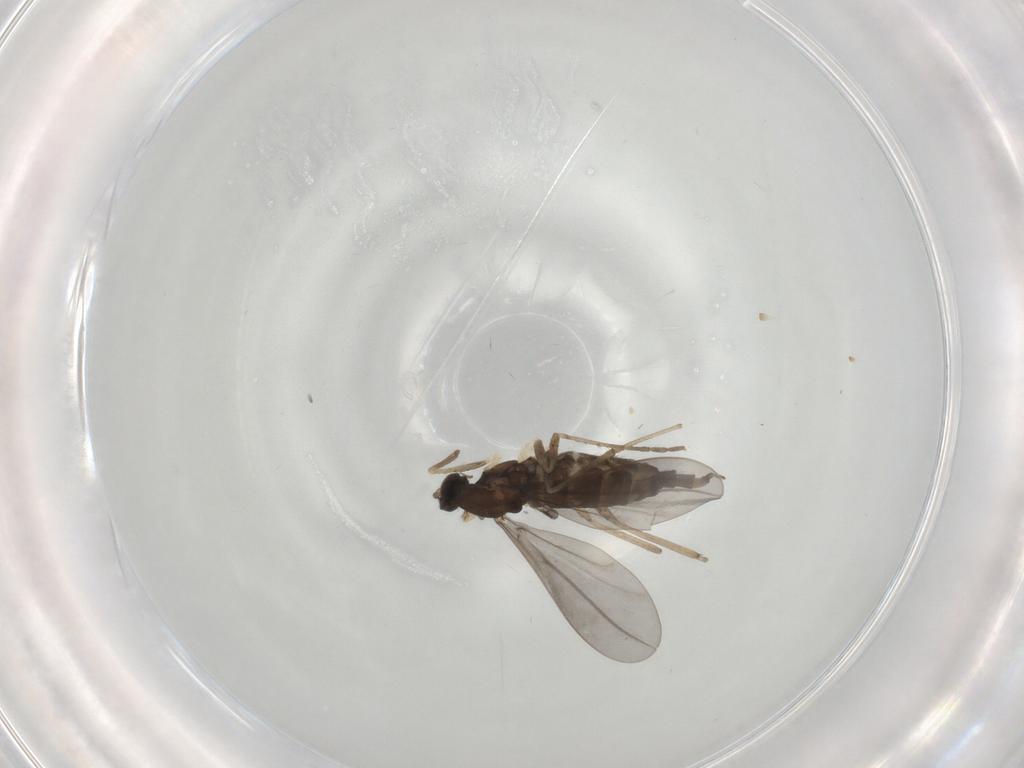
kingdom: Animalia
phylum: Arthropoda
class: Insecta
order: Diptera
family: Cecidomyiidae
